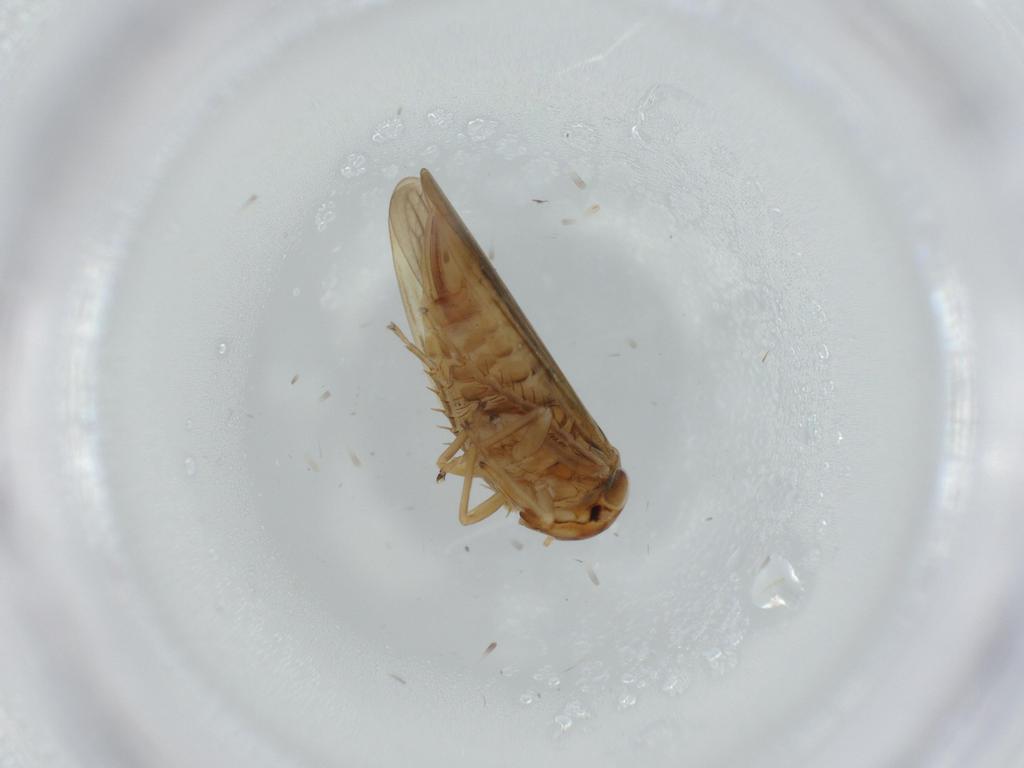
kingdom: Animalia
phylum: Arthropoda
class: Insecta
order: Hemiptera
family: Cicadellidae
